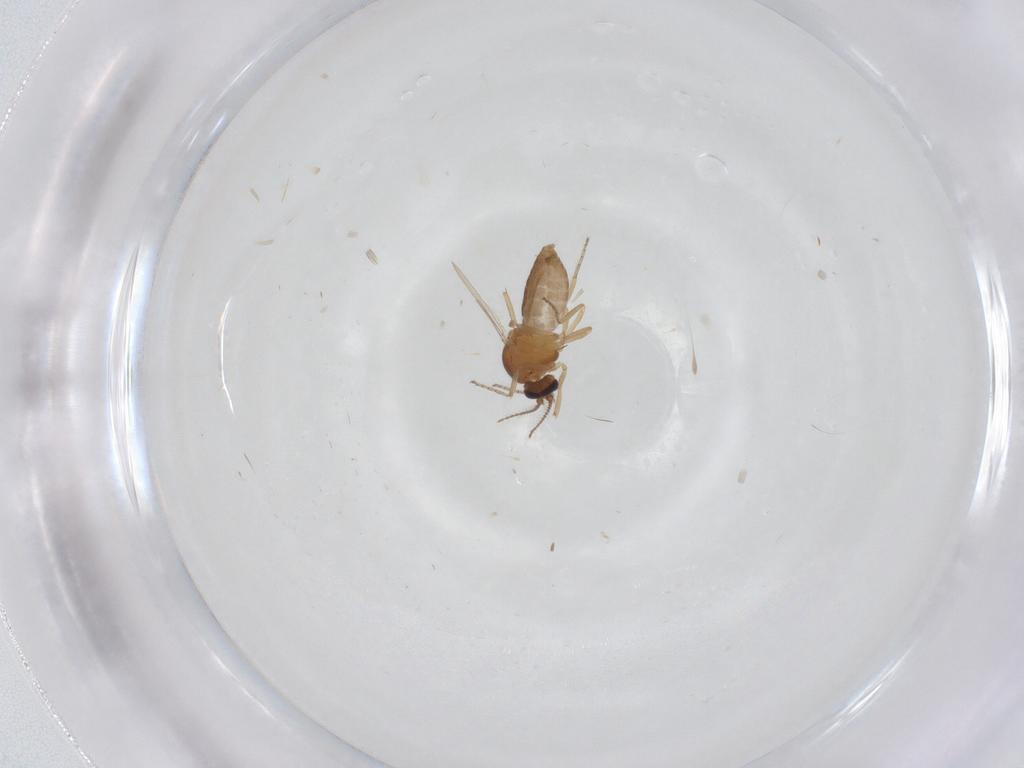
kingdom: Animalia
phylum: Arthropoda
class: Insecta
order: Diptera
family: Ceratopogonidae
